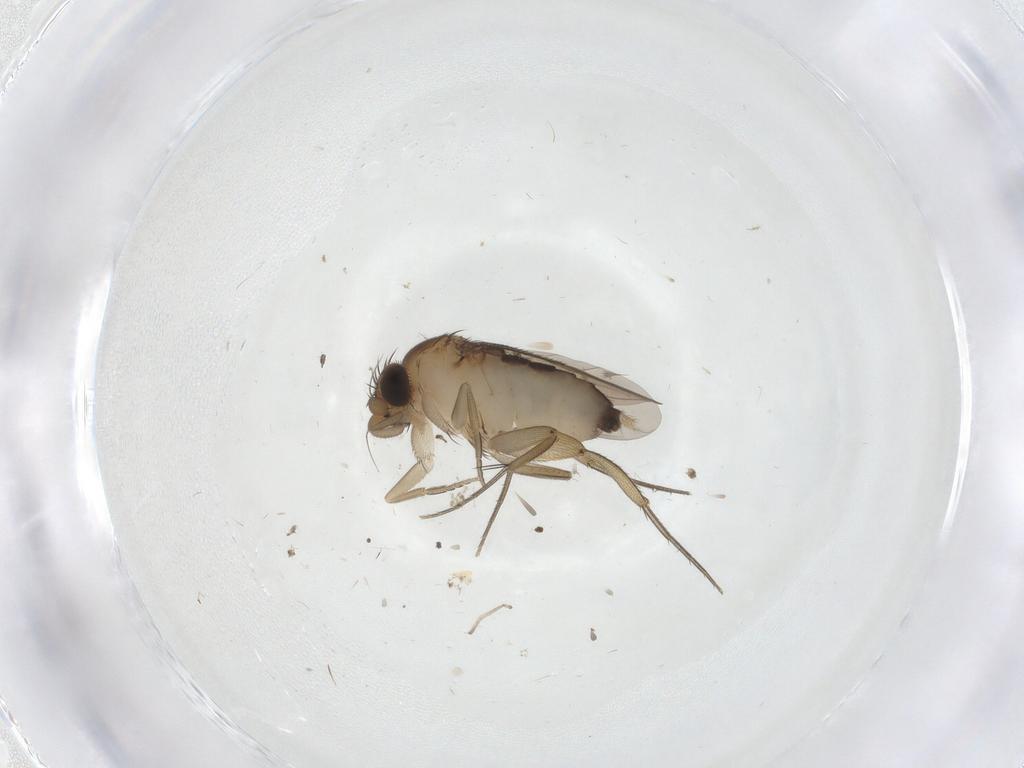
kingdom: Animalia
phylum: Arthropoda
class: Insecta
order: Diptera
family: Phoridae
